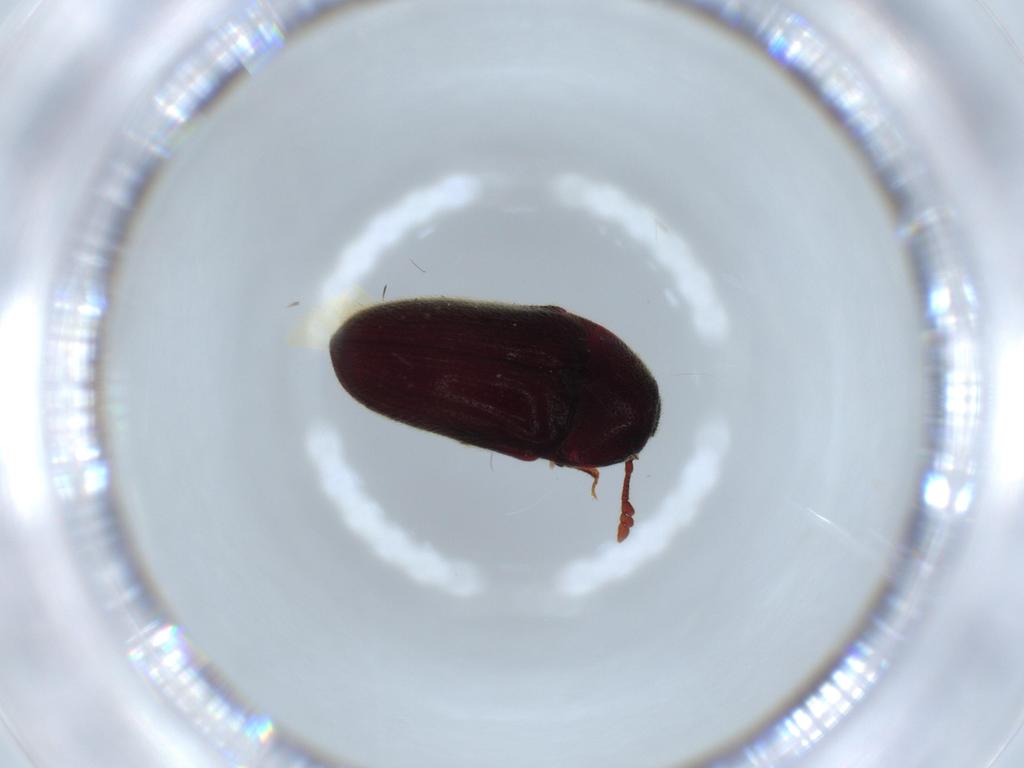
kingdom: Animalia
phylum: Arthropoda
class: Insecta
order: Coleoptera
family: Throscidae
